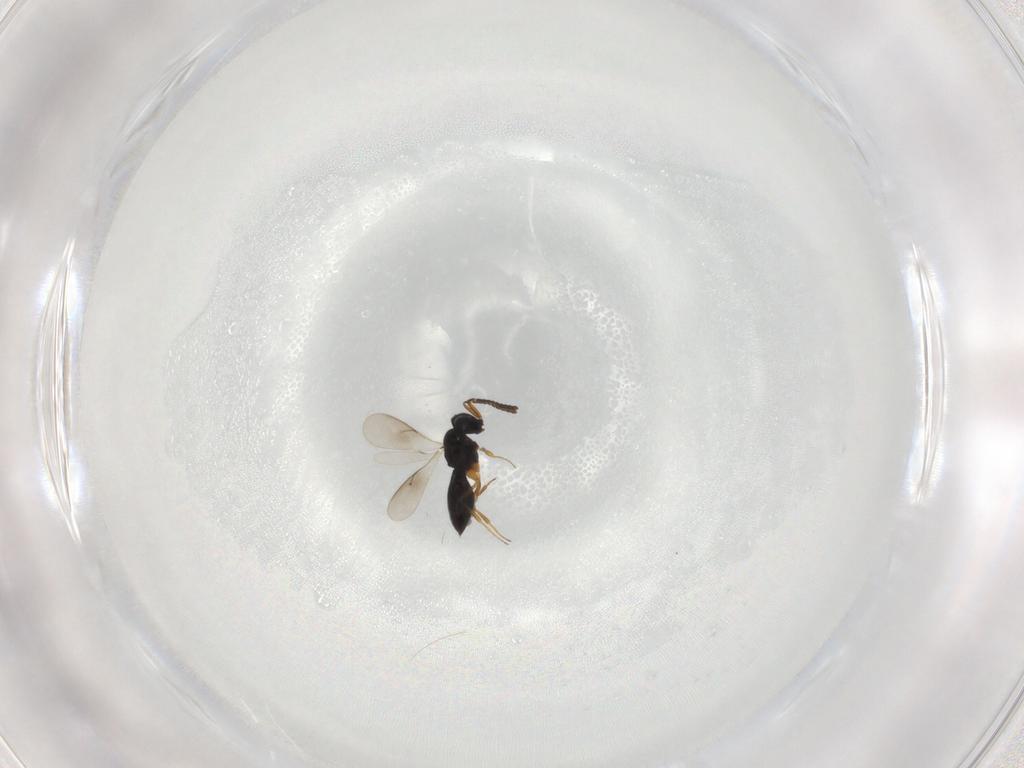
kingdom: Animalia
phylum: Arthropoda
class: Insecta
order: Hymenoptera
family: Scelionidae
